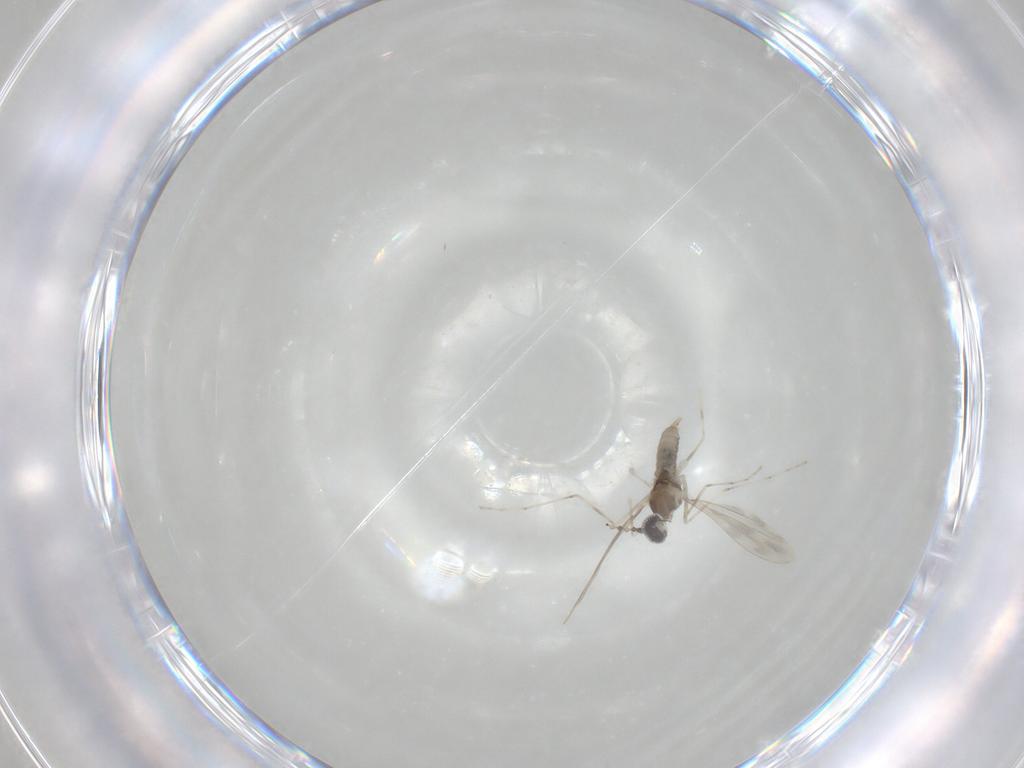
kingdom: Animalia
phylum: Arthropoda
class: Insecta
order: Diptera
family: Cecidomyiidae
